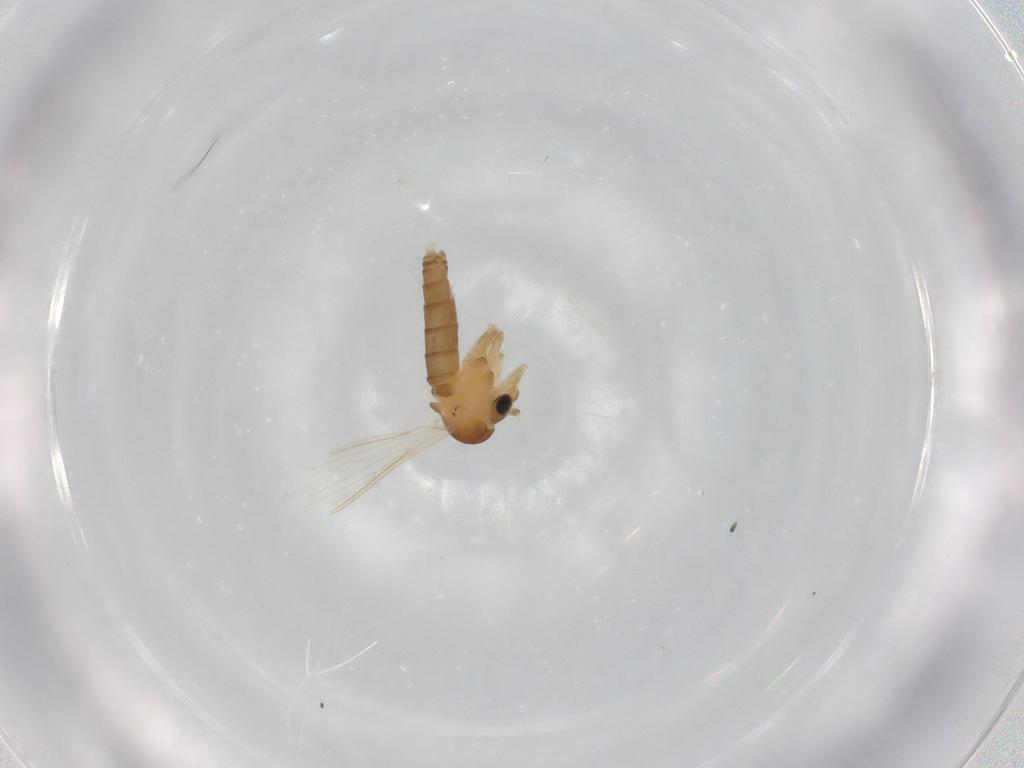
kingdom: Animalia
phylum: Arthropoda
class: Insecta
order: Diptera
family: Psychodidae
